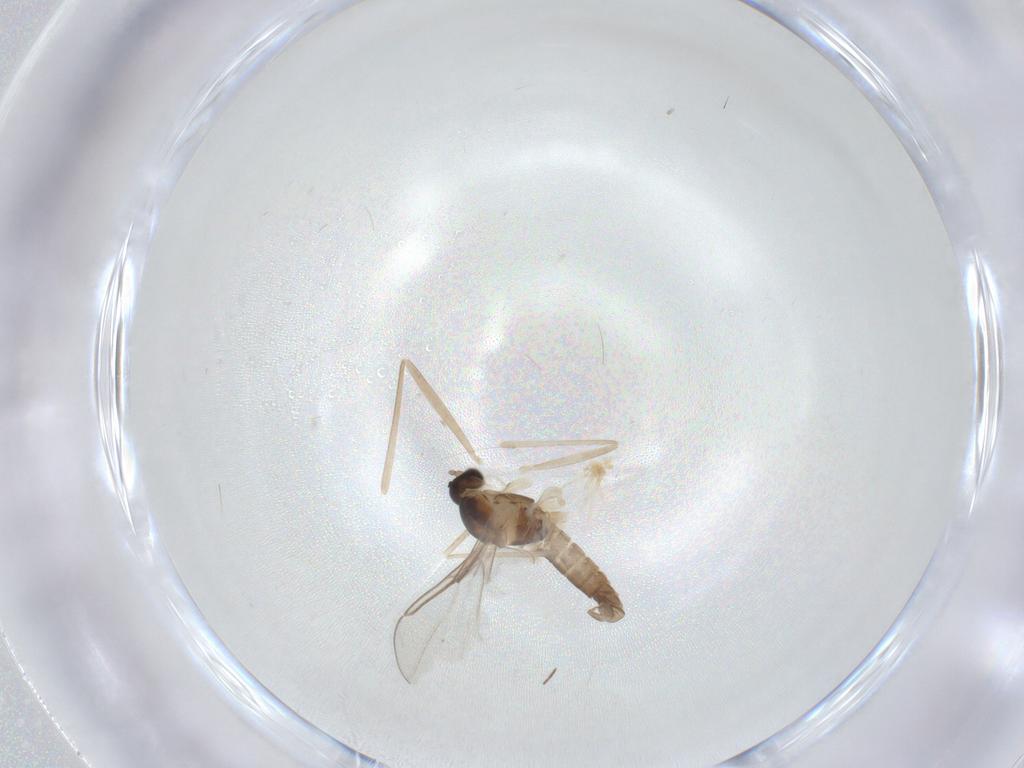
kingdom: Animalia
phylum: Arthropoda
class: Insecta
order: Diptera
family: Cecidomyiidae
